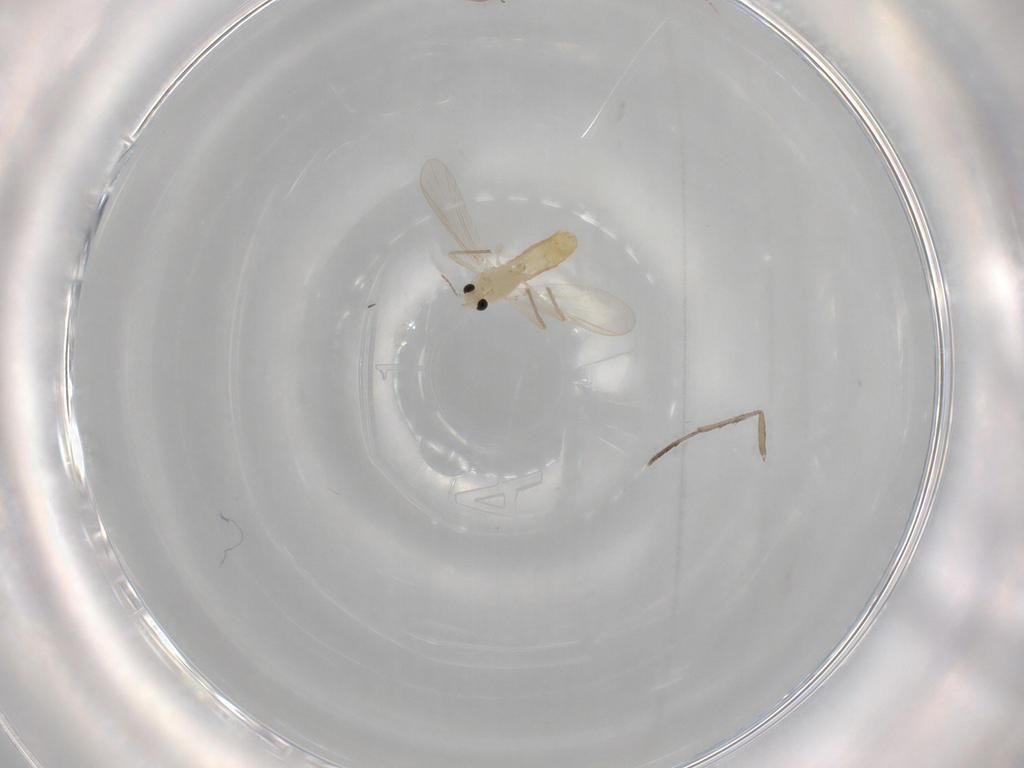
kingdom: Animalia
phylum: Arthropoda
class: Insecta
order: Diptera
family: Psychodidae
